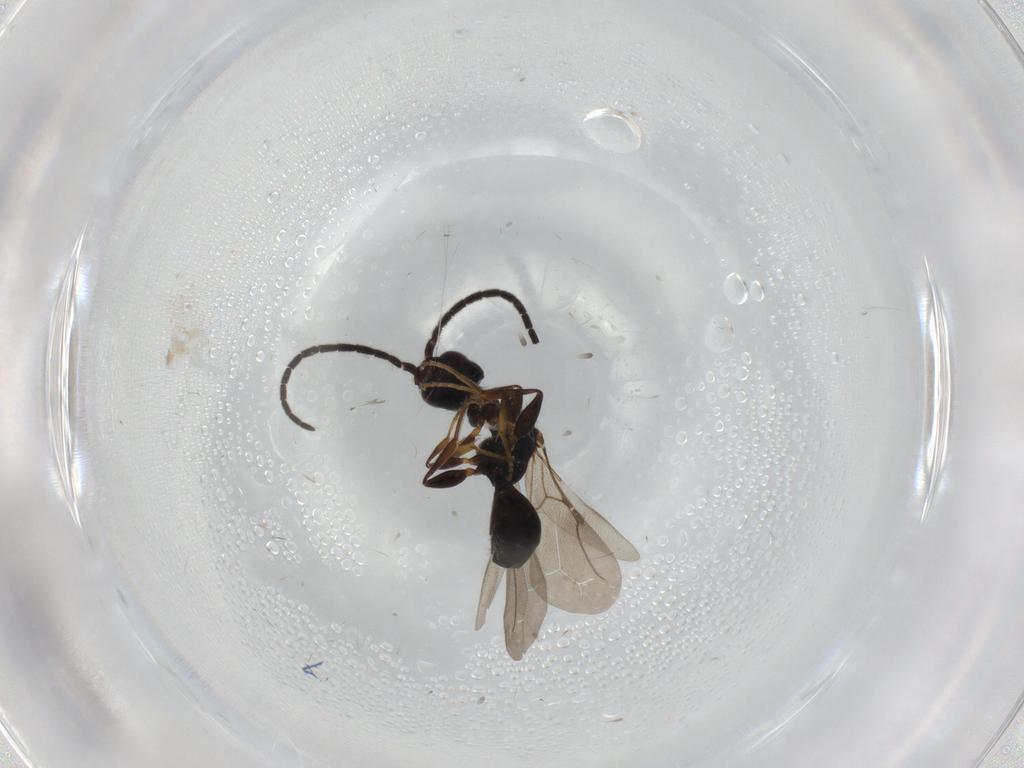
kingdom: Animalia
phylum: Arthropoda
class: Insecta
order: Hymenoptera
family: Bethylidae
